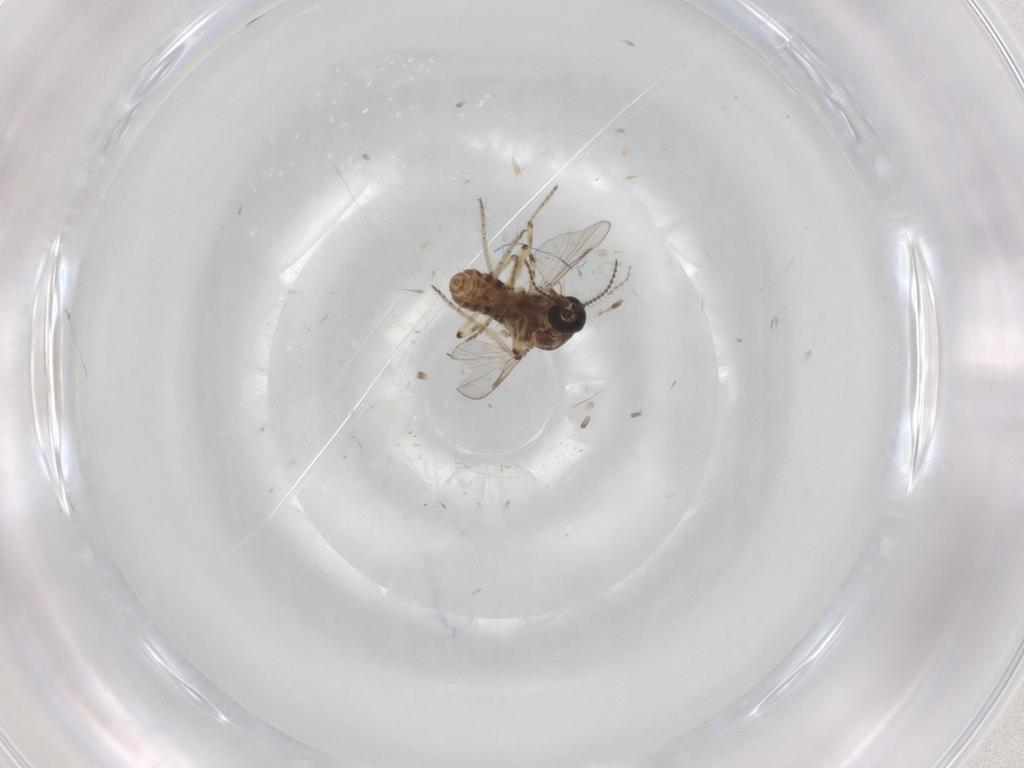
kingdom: Animalia
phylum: Arthropoda
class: Insecta
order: Diptera
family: Ceratopogonidae
